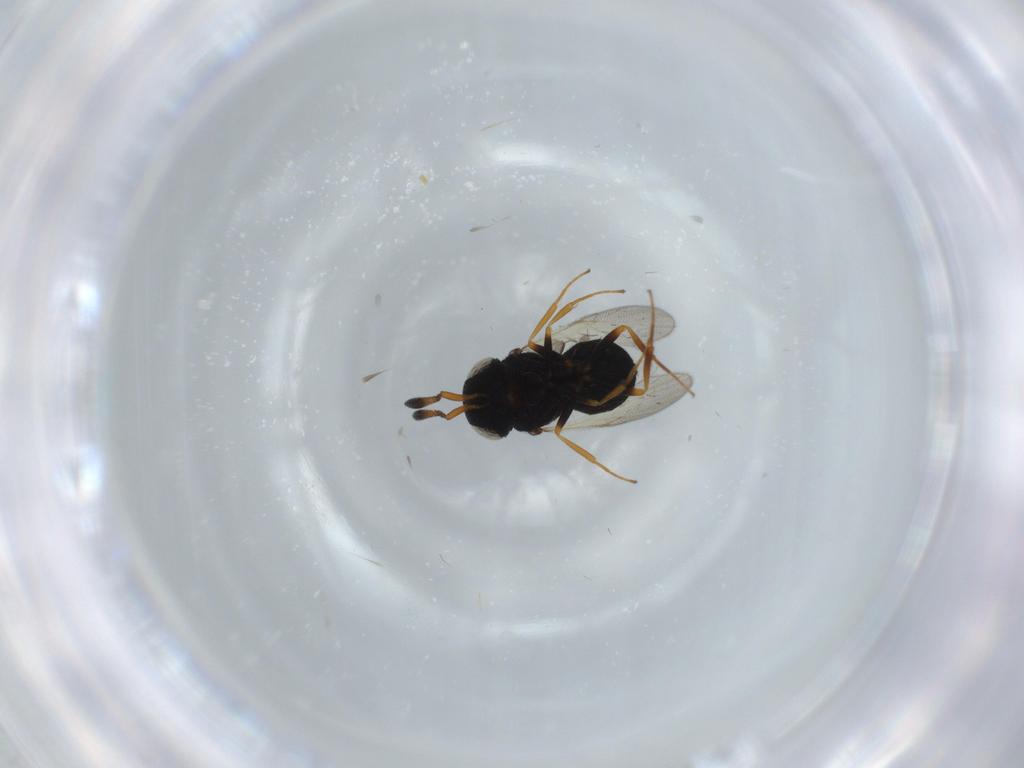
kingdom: Animalia
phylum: Arthropoda
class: Insecta
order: Hymenoptera
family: Scelionidae
